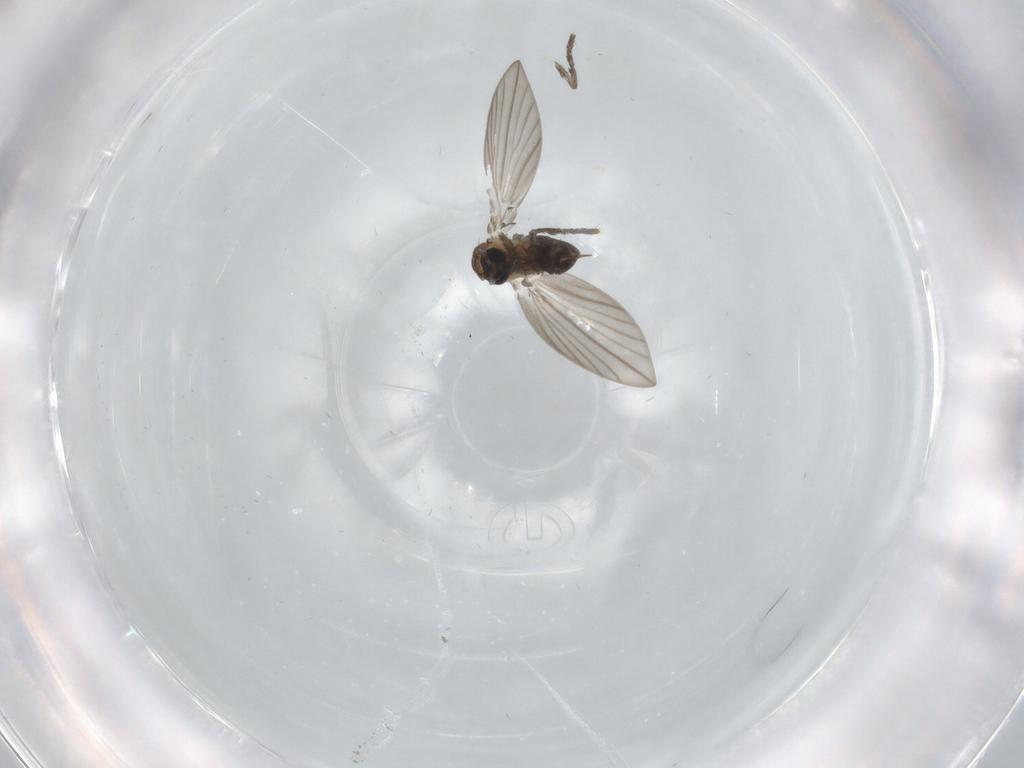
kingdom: Animalia
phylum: Arthropoda
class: Insecta
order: Diptera
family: Psychodidae
